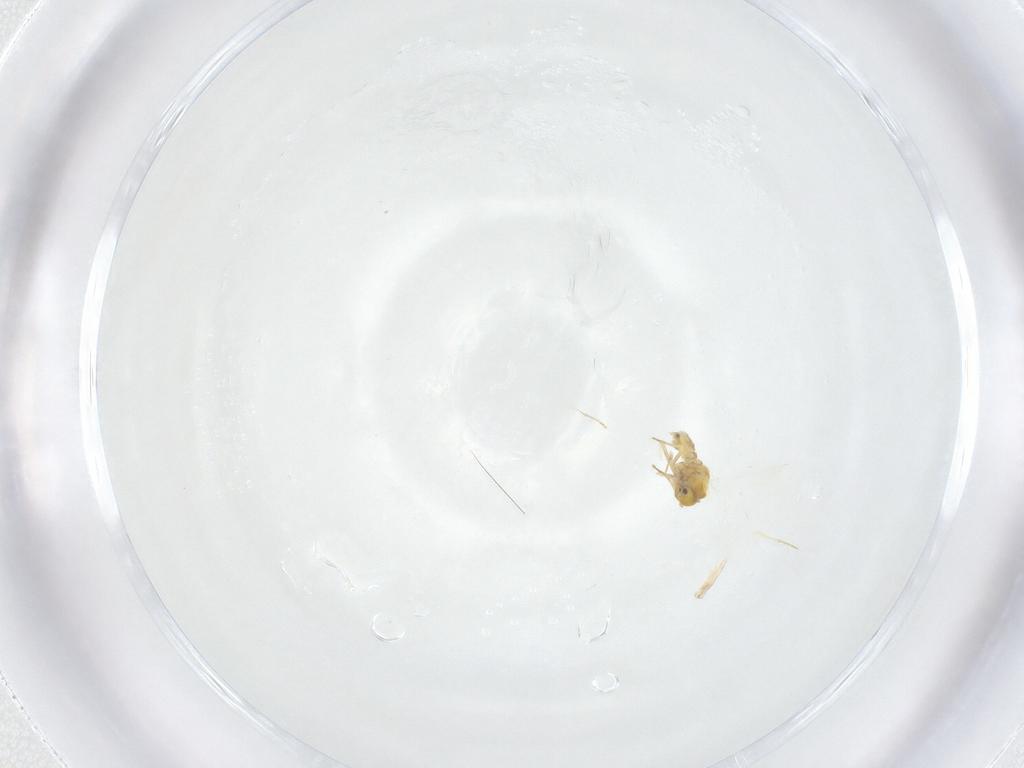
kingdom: Animalia
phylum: Arthropoda
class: Insecta
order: Hemiptera
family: Aleyrodidae
